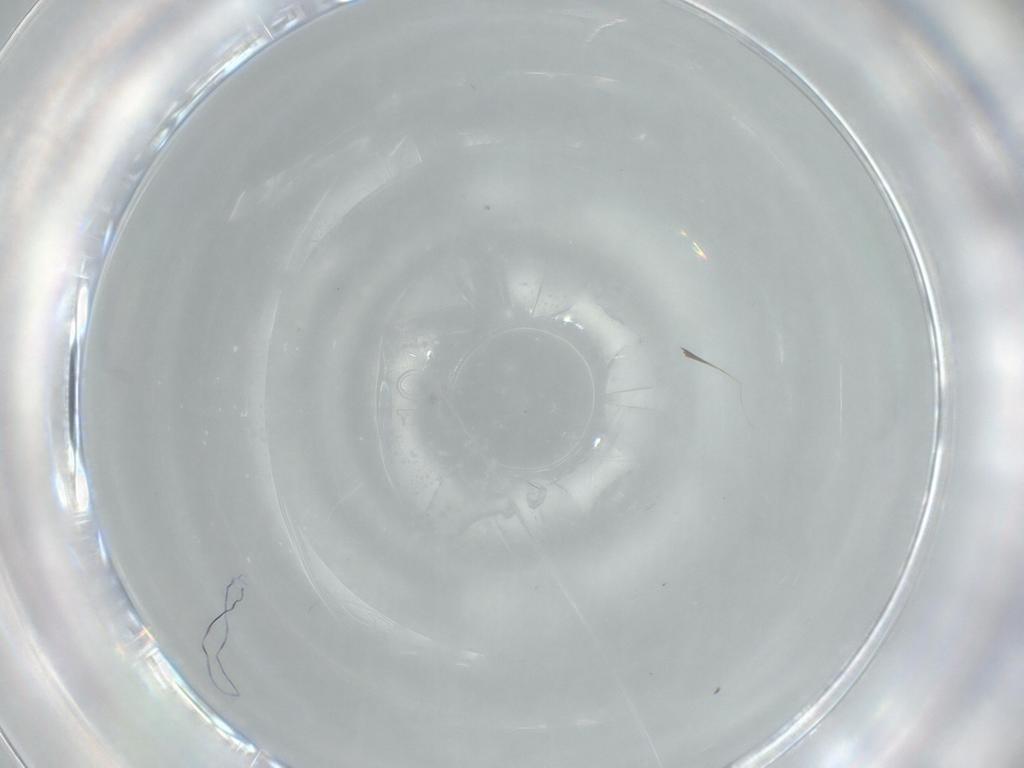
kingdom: Animalia
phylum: Arthropoda
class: Insecta
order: Diptera
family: Psychodidae
